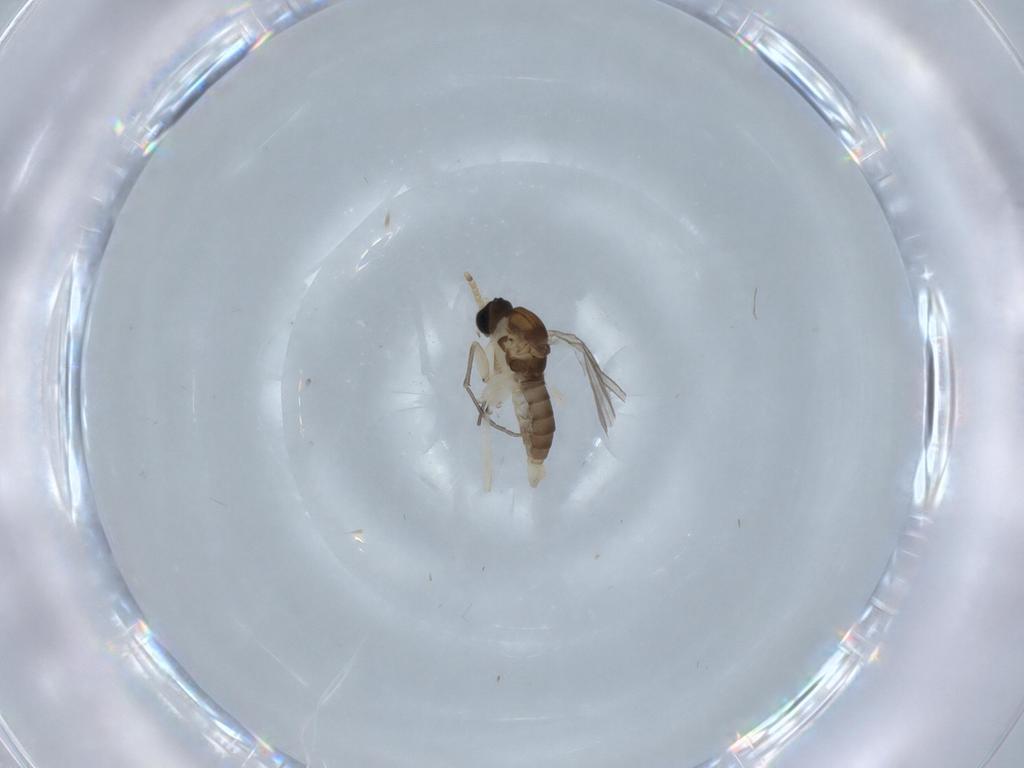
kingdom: Animalia
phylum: Arthropoda
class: Insecta
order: Diptera
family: Sciaridae
